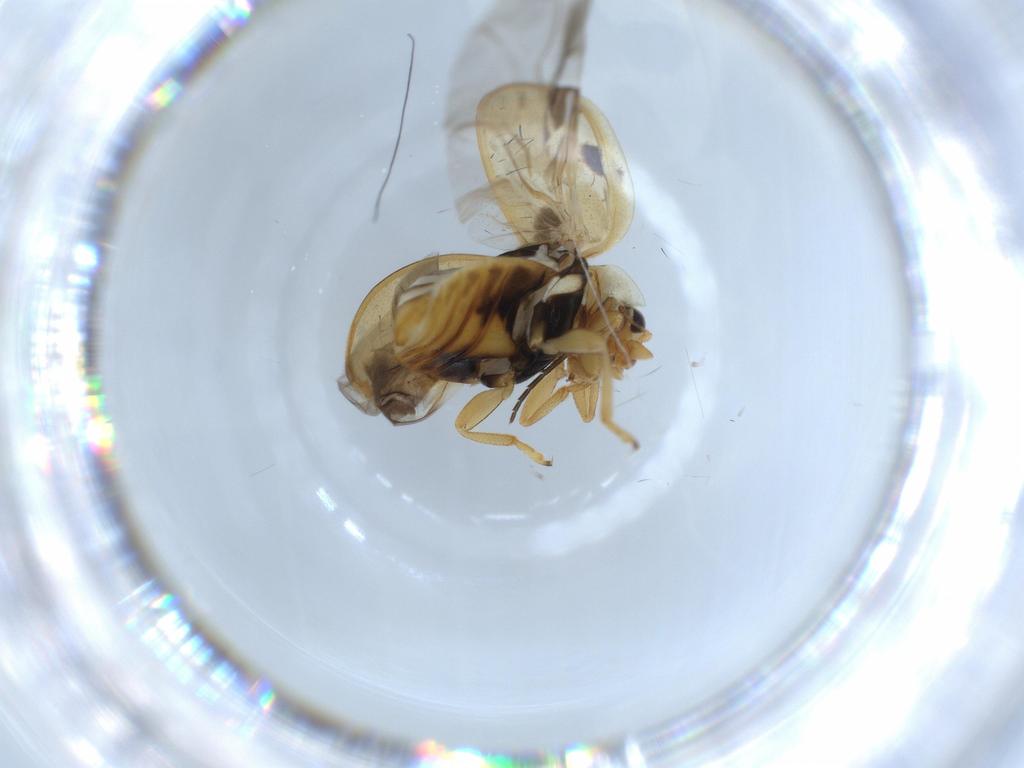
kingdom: Animalia
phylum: Arthropoda
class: Insecta
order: Coleoptera
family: Coccinellidae
